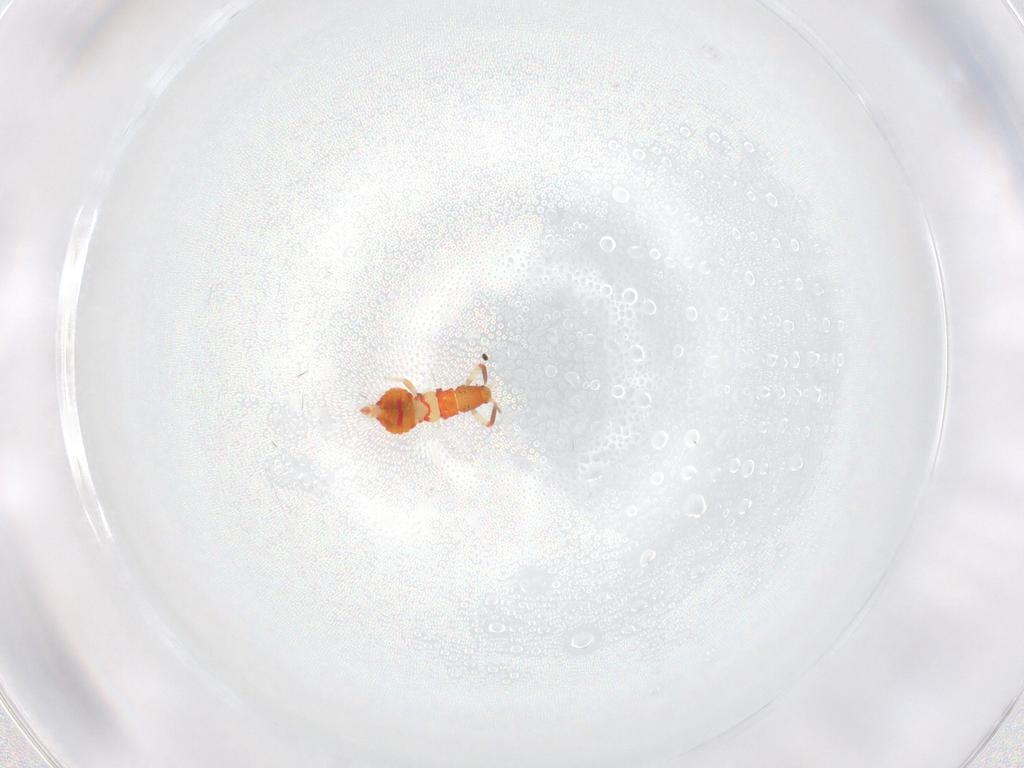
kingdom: Animalia
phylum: Arthropoda
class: Insecta
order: Thysanoptera
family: Aeolothripidae
